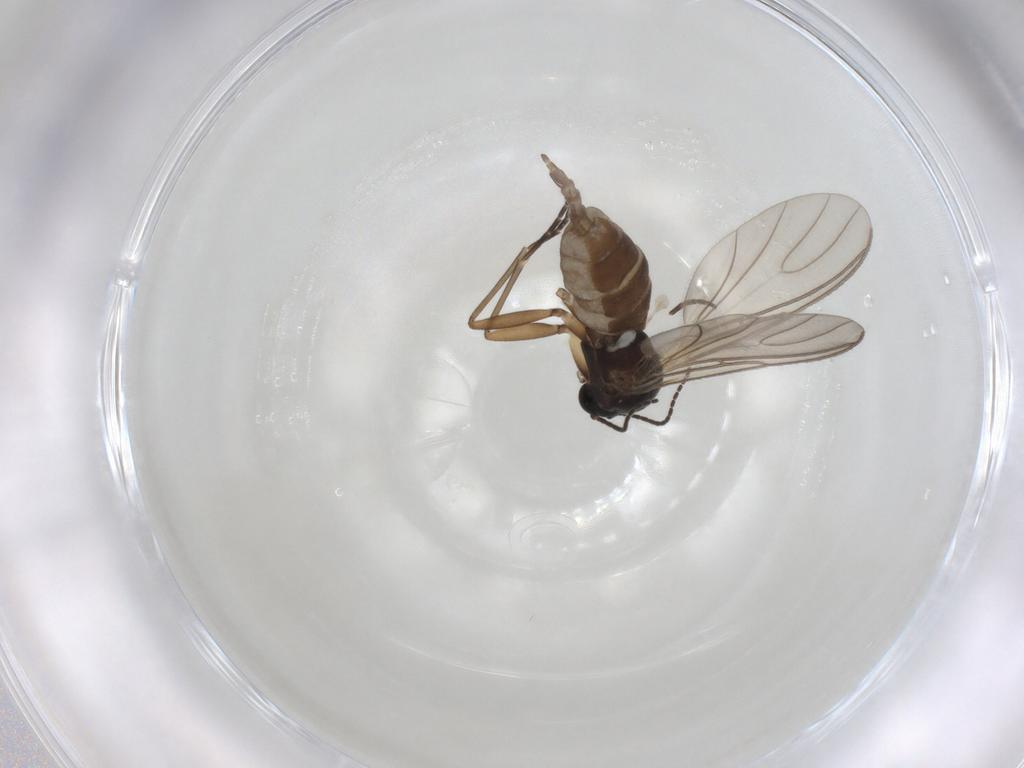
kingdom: Animalia
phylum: Arthropoda
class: Insecta
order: Diptera
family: Sciaridae
